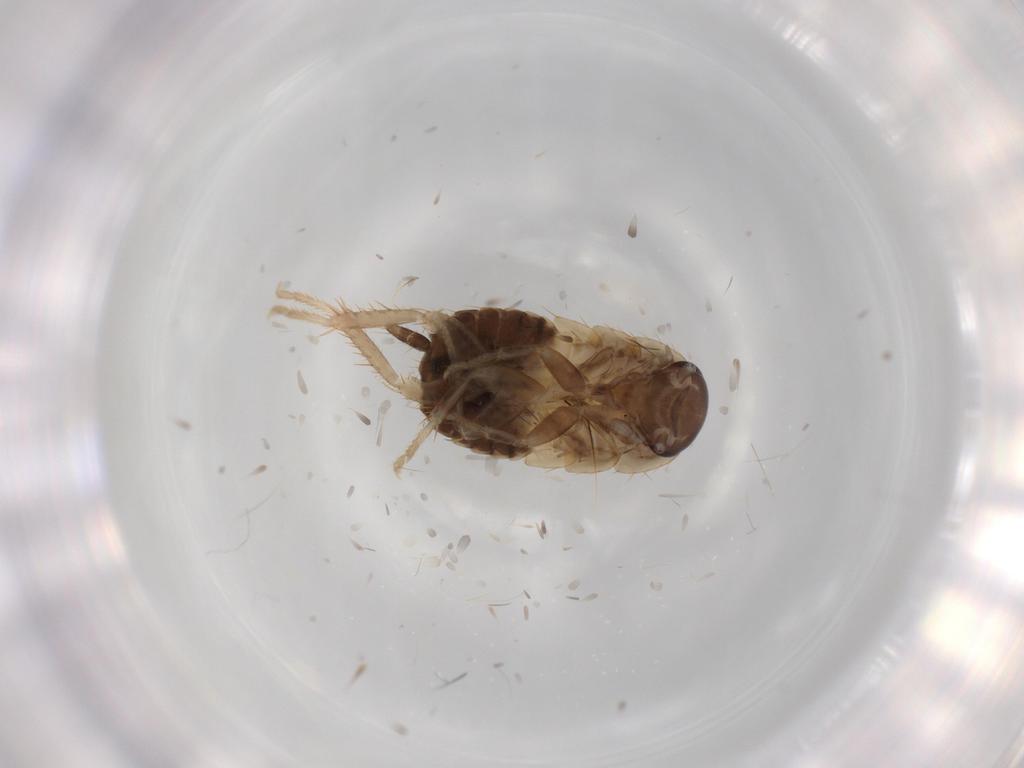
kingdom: Animalia
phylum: Arthropoda
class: Insecta
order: Blattodea
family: Ectobiidae
